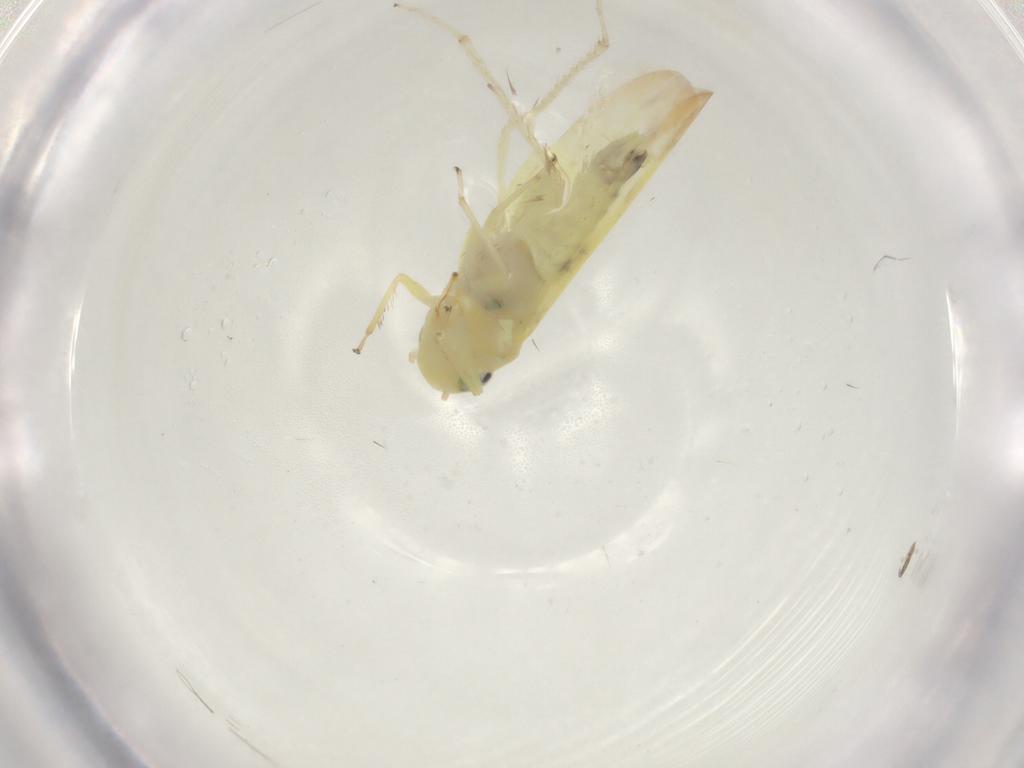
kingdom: Animalia
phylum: Arthropoda
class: Insecta
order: Hemiptera
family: Cicadellidae
